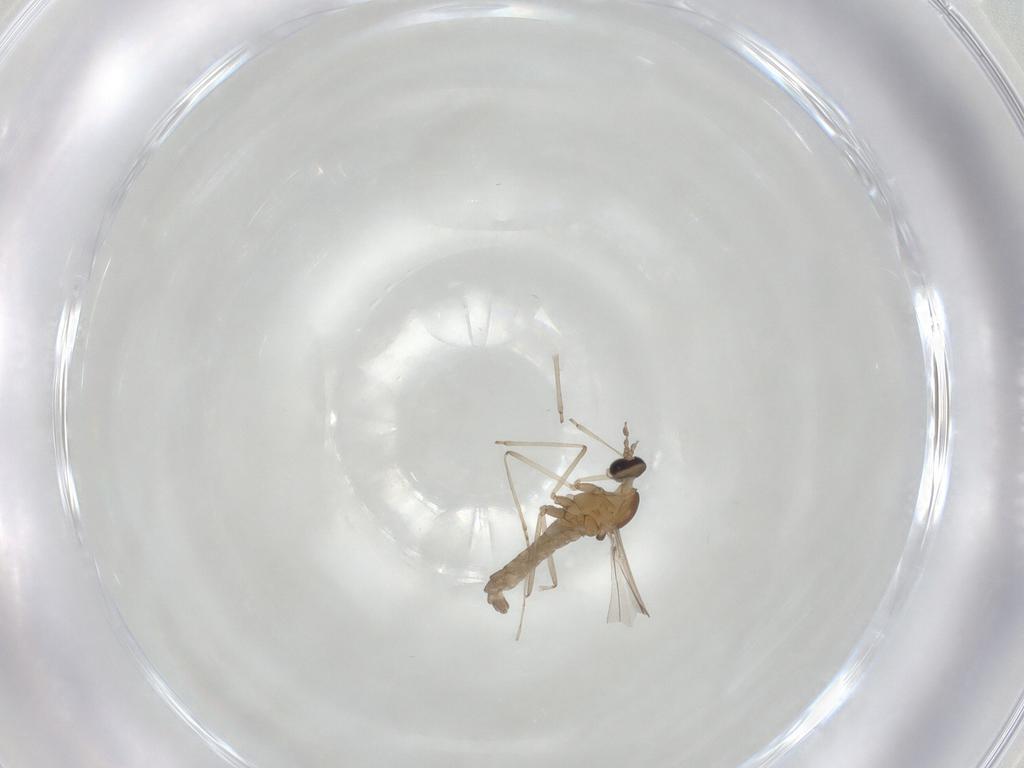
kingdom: Animalia
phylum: Arthropoda
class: Insecta
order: Diptera
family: Cecidomyiidae
